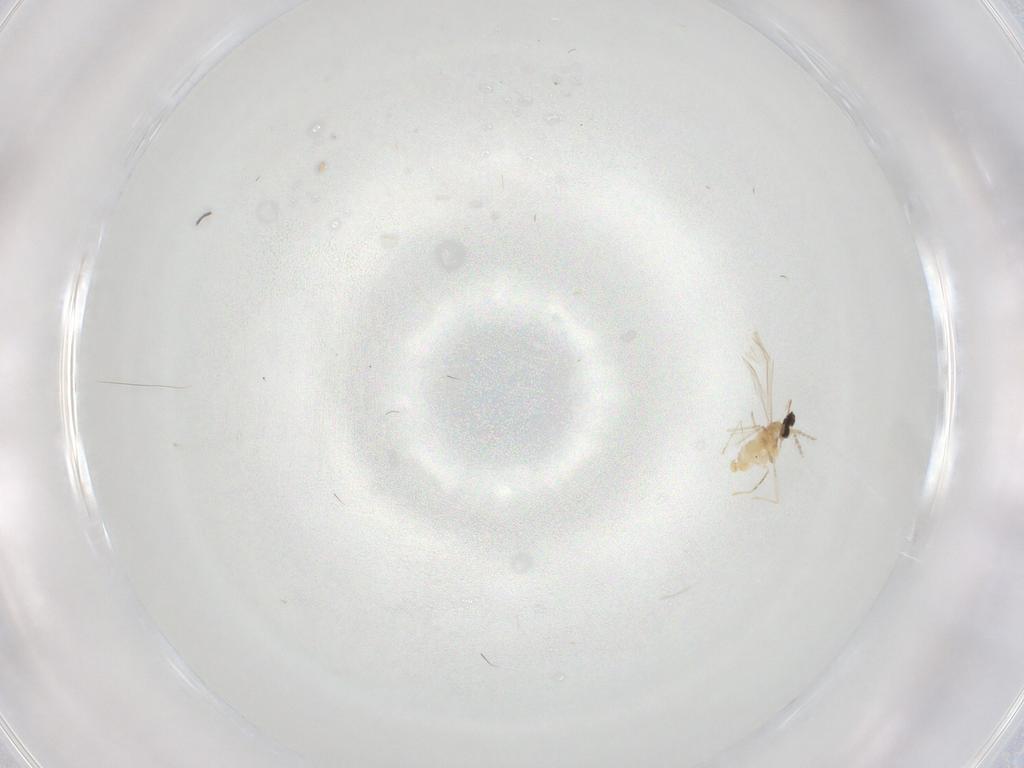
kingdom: Animalia
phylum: Arthropoda
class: Insecta
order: Diptera
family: Cecidomyiidae
